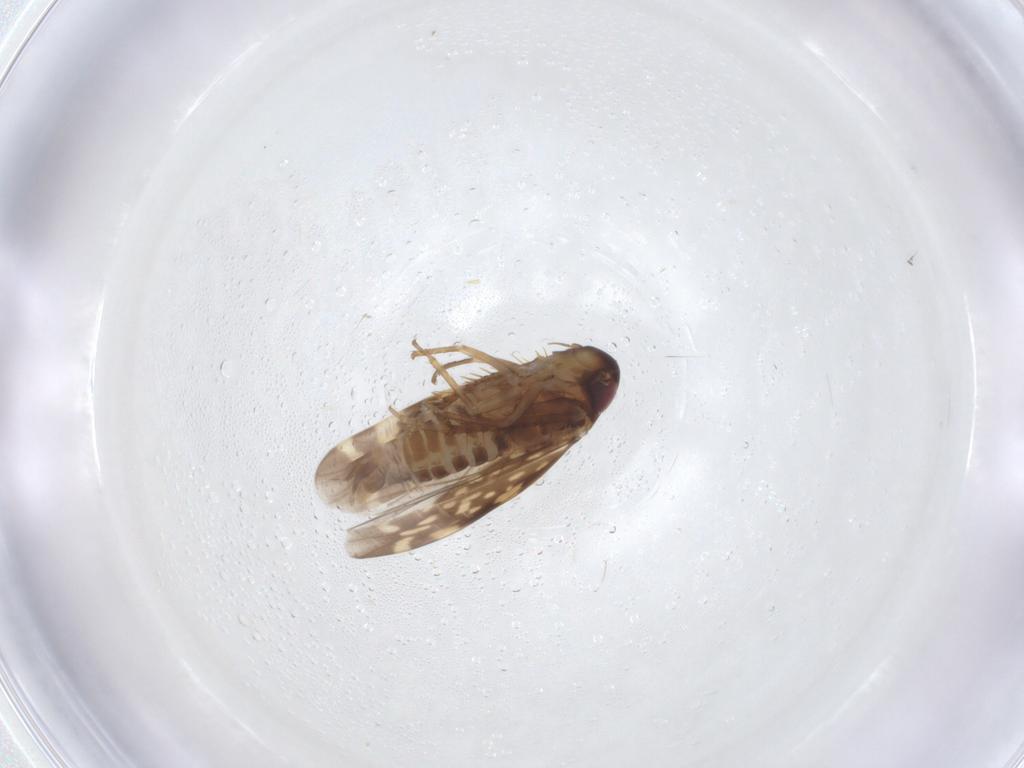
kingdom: Animalia
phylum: Arthropoda
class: Insecta
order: Hemiptera
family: Cicadellidae
